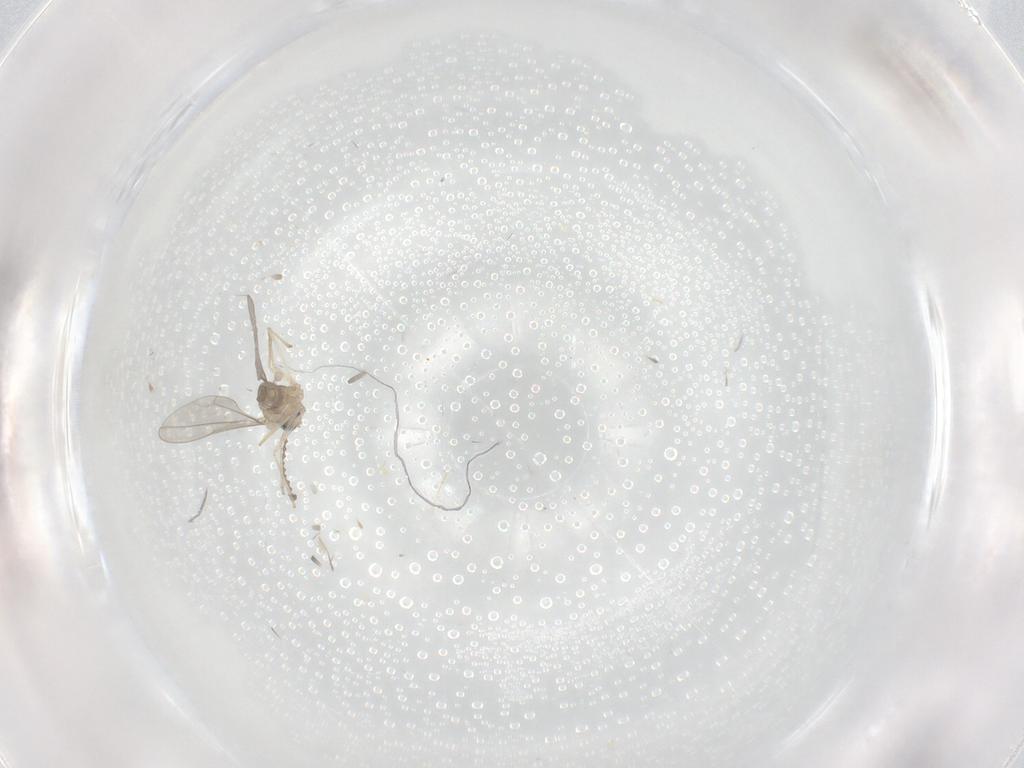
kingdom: Animalia
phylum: Arthropoda
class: Insecta
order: Diptera
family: Cecidomyiidae
